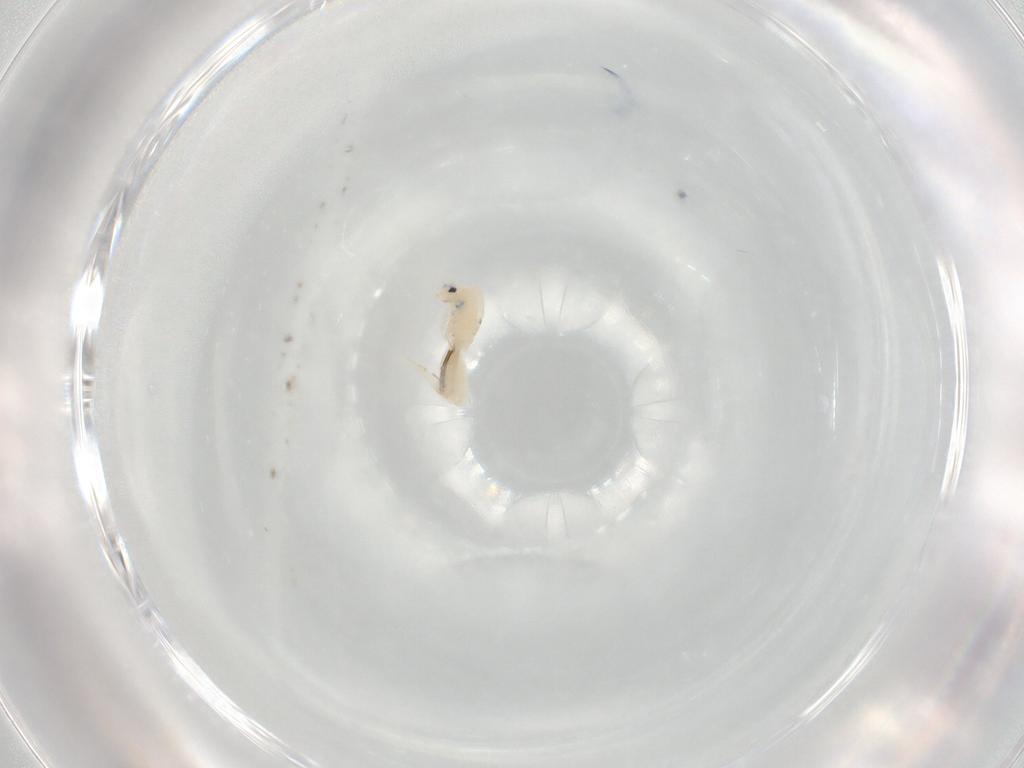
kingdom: Animalia
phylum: Arthropoda
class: Collembola
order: Entomobryomorpha
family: Entomobryidae
